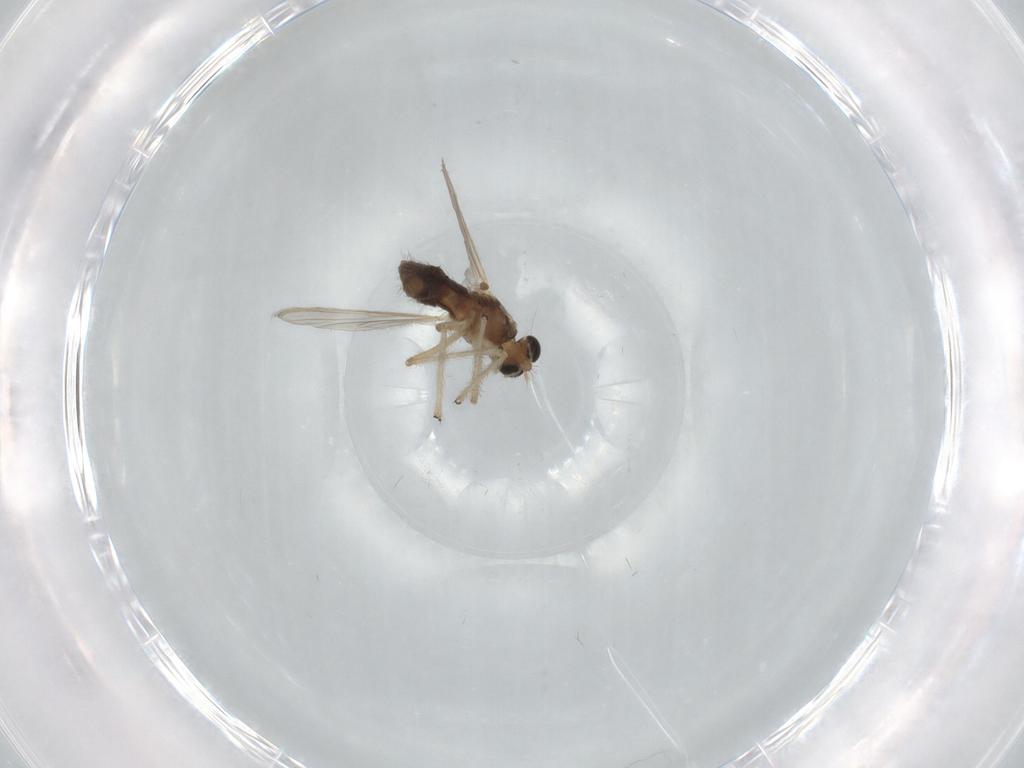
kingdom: Animalia
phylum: Arthropoda
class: Insecta
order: Diptera
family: Chironomidae
